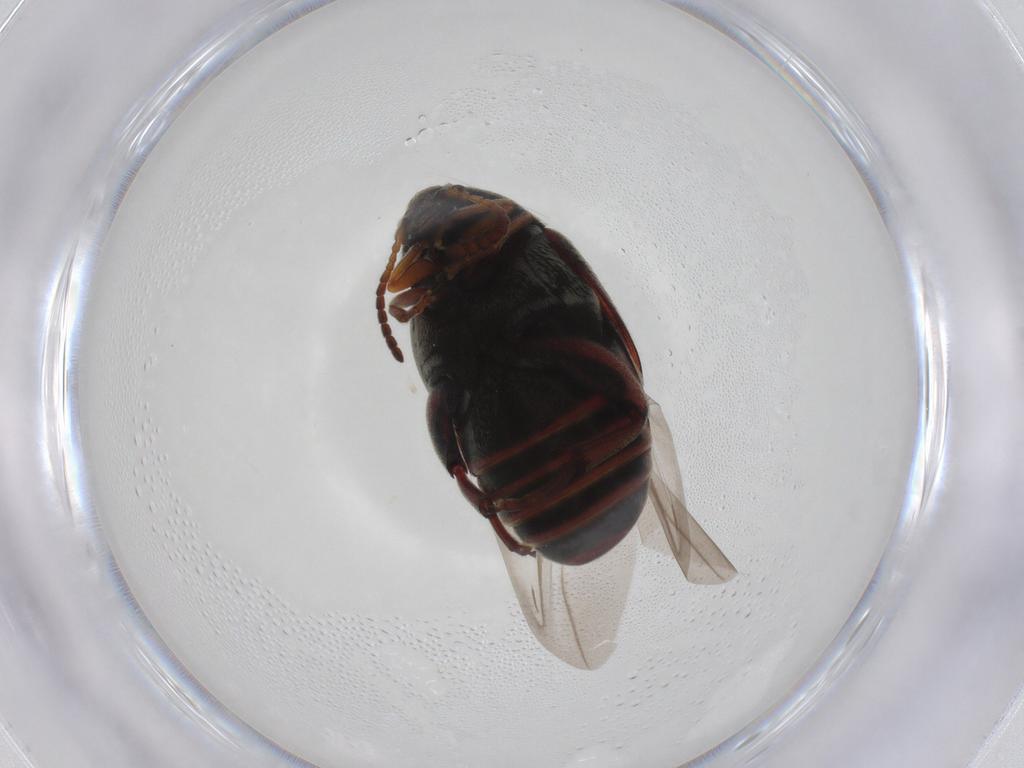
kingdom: Animalia
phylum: Arthropoda
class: Insecta
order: Coleoptera
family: Chrysomelidae
